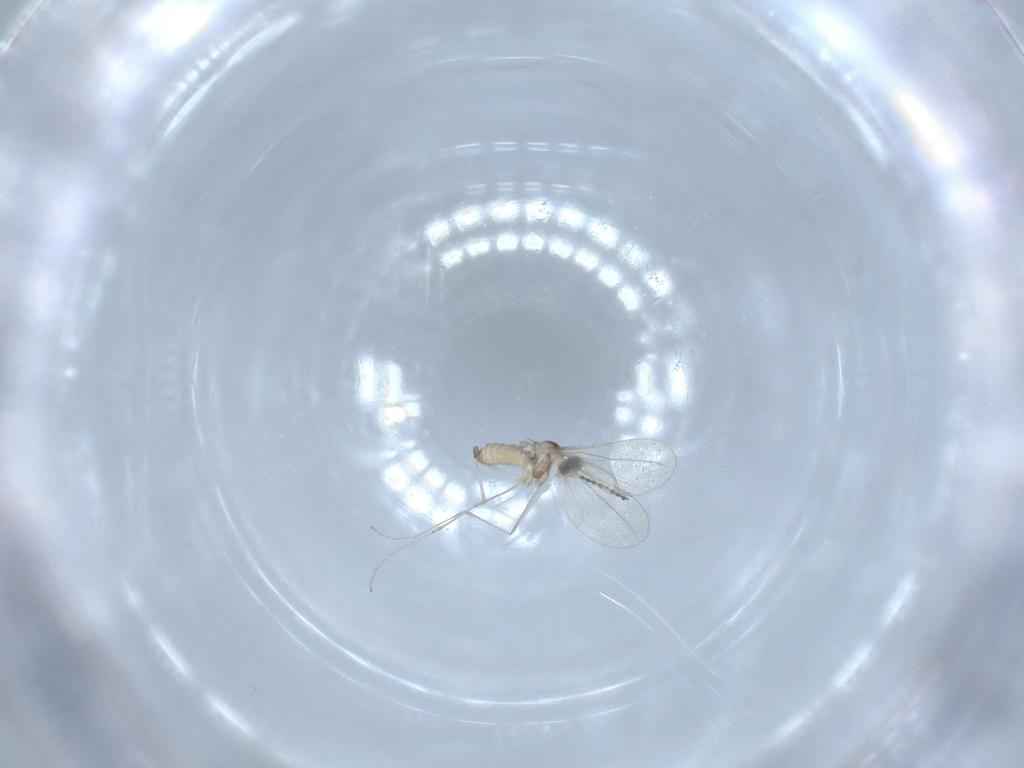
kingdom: Animalia
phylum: Arthropoda
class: Insecta
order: Diptera
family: Cecidomyiidae
